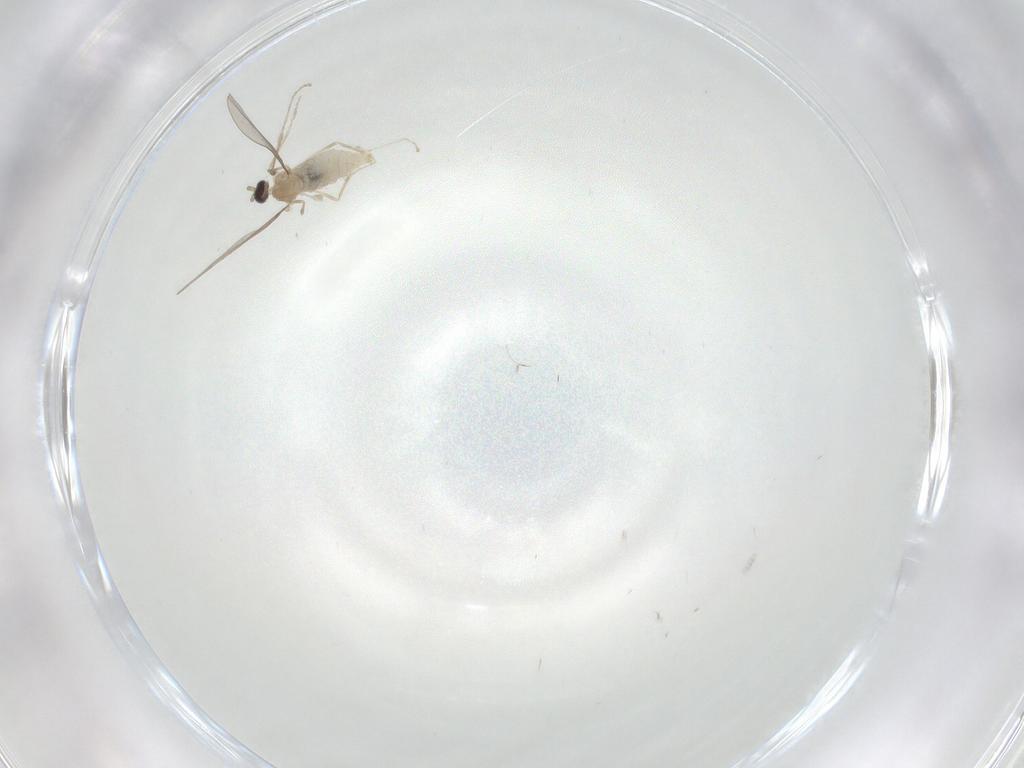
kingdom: Animalia
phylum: Arthropoda
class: Insecta
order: Diptera
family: Cecidomyiidae
